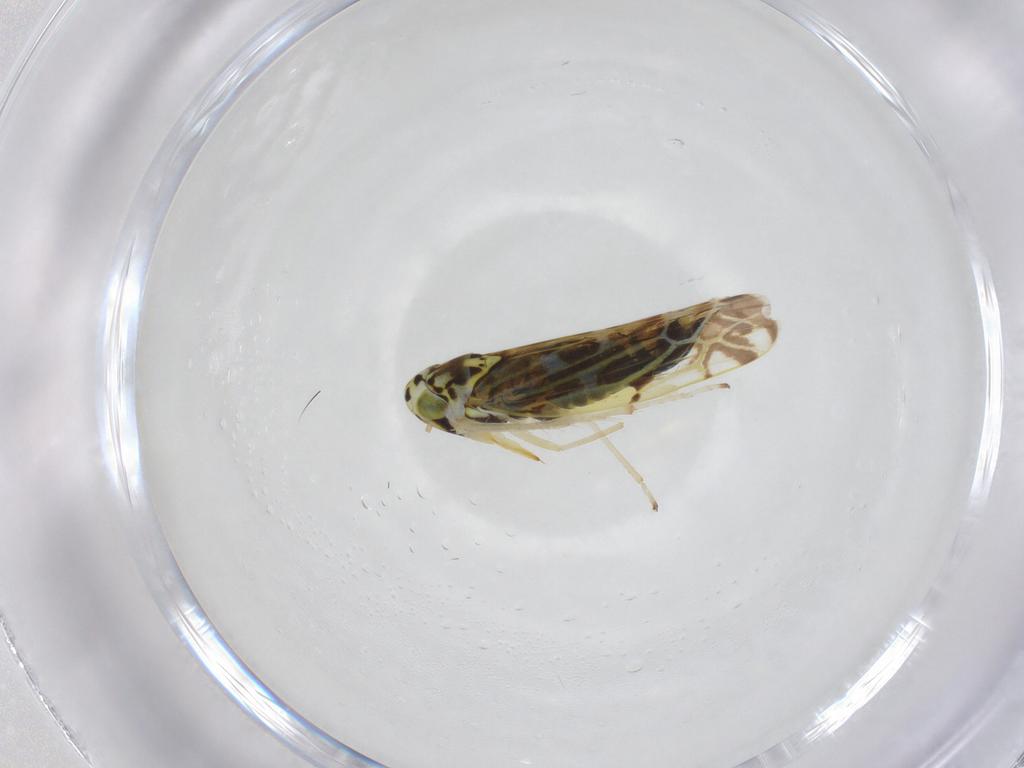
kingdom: Animalia
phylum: Arthropoda
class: Insecta
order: Hemiptera
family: Cicadellidae
